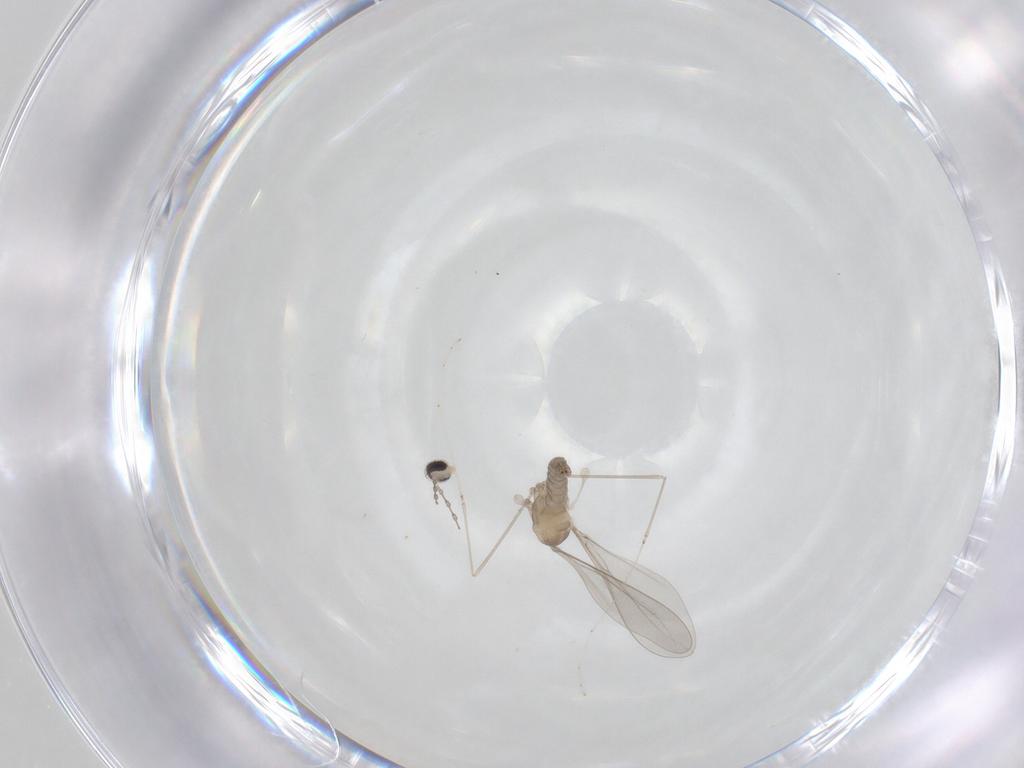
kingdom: Animalia
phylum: Arthropoda
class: Insecta
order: Diptera
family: Cecidomyiidae
